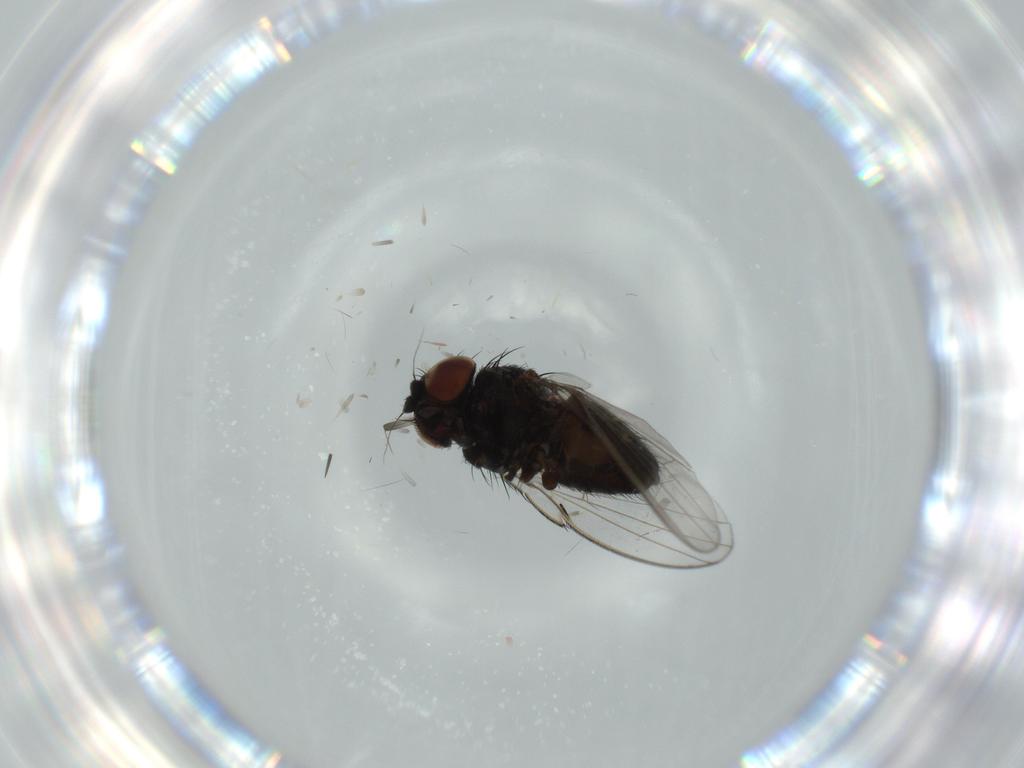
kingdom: Animalia
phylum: Arthropoda
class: Insecta
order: Diptera
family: Milichiidae
